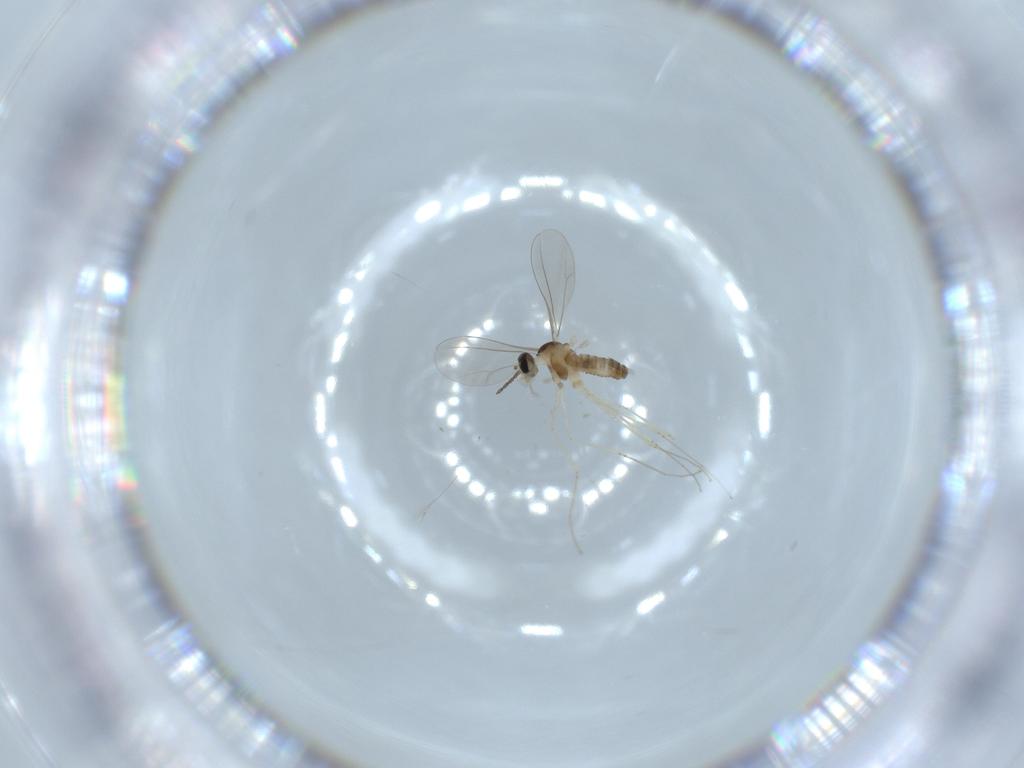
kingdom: Animalia
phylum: Arthropoda
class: Insecta
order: Diptera
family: Cecidomyiidae
